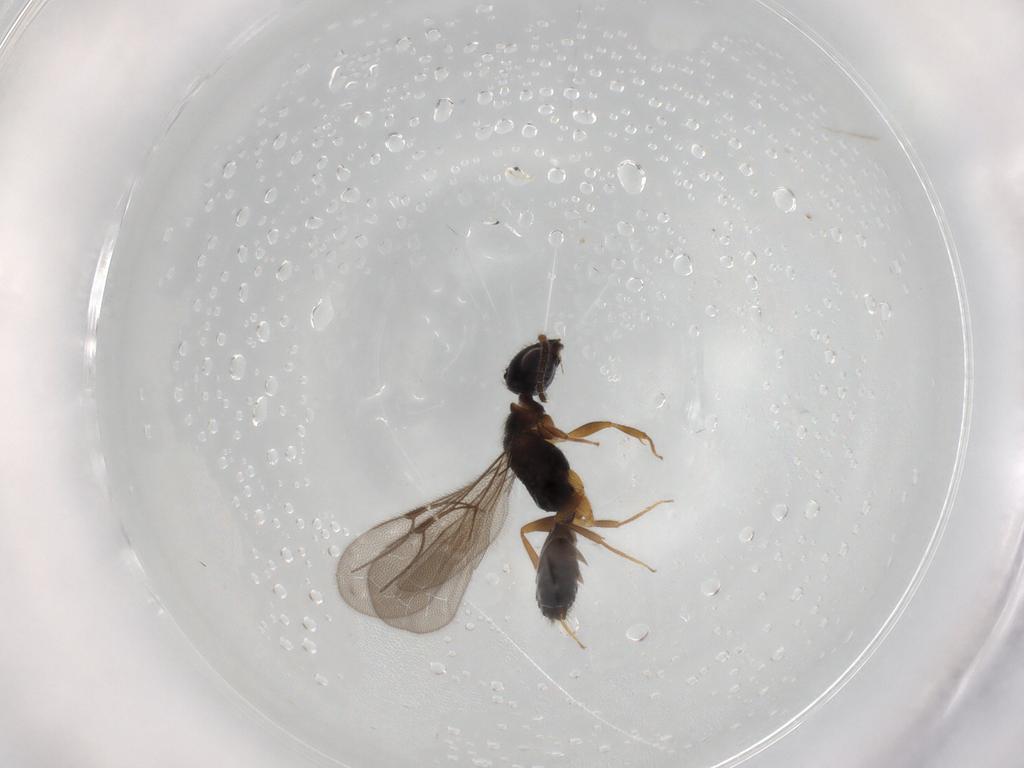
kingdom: Animalia
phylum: Arthropoda
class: Insecta
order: Hymenoptera
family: Bethylidae
